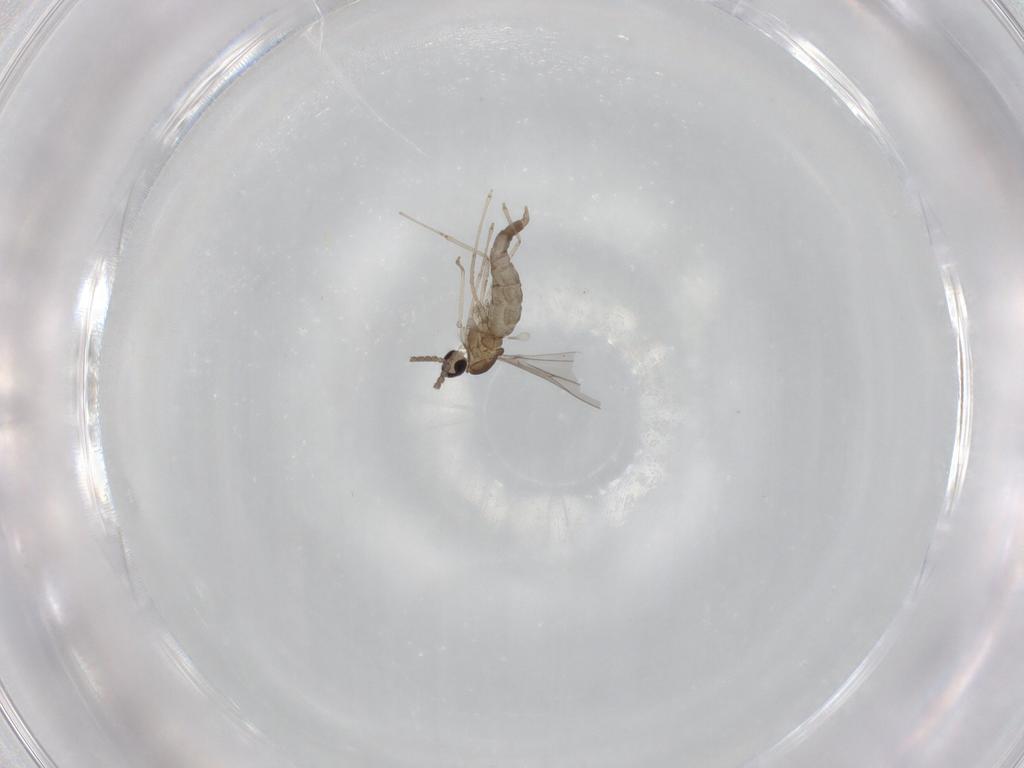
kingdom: Animalia
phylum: Arthropoda
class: Insecta
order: Diptera
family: Cecidomyiidae
